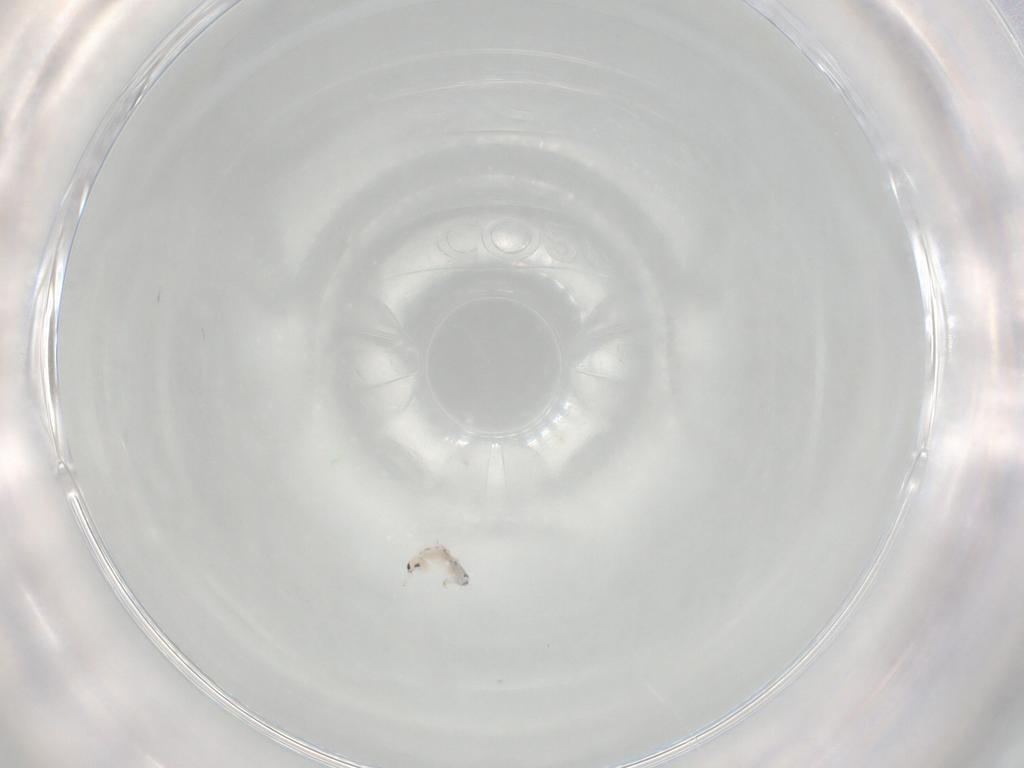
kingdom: Animalia
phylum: Arthropoda
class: Collembola
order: Entomobryomorpha
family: Entomobryidae
